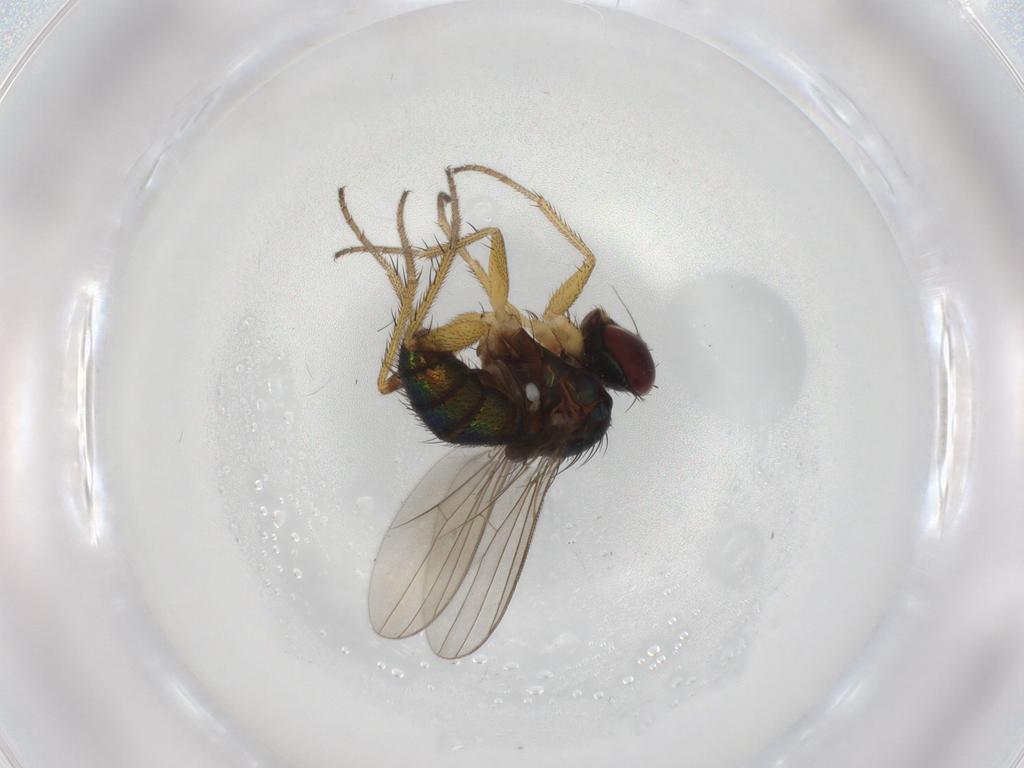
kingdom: Animalia
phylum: Arthropoda
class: Insecta
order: Diptera
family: Dolichopodidae
